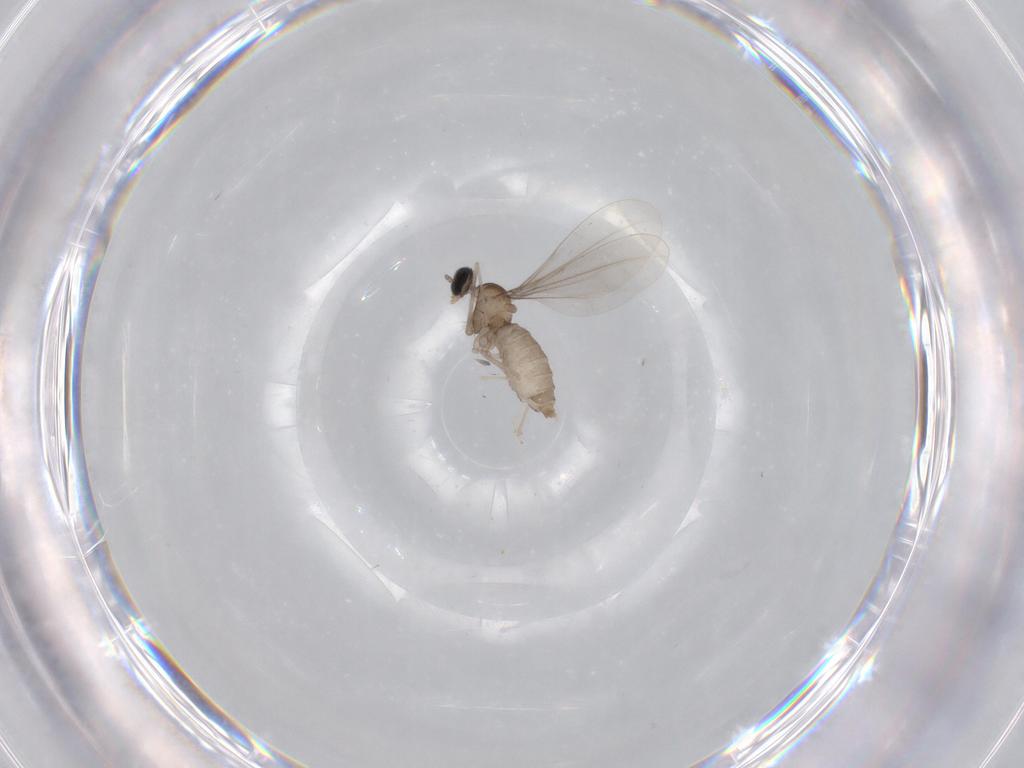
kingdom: Animalia
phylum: Arthropoda
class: Insecta
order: Diptera
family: Cecidomyiidae
